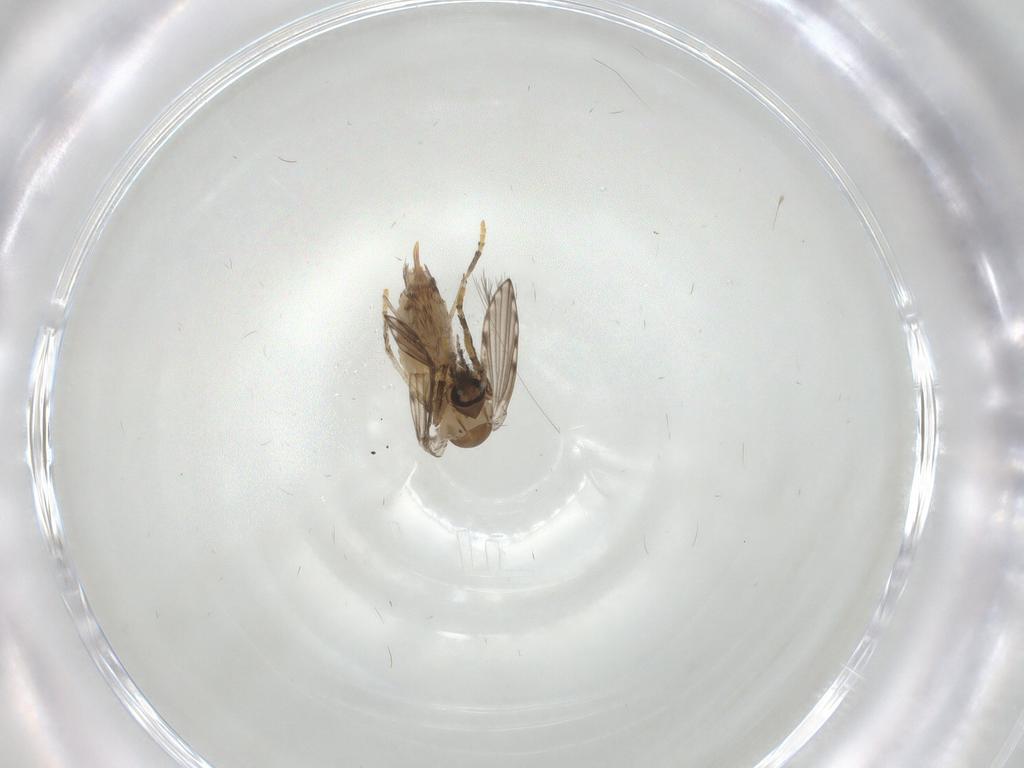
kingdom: Animalia
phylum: Arthropoda
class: Insecta
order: Diptera
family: Psychodidae
